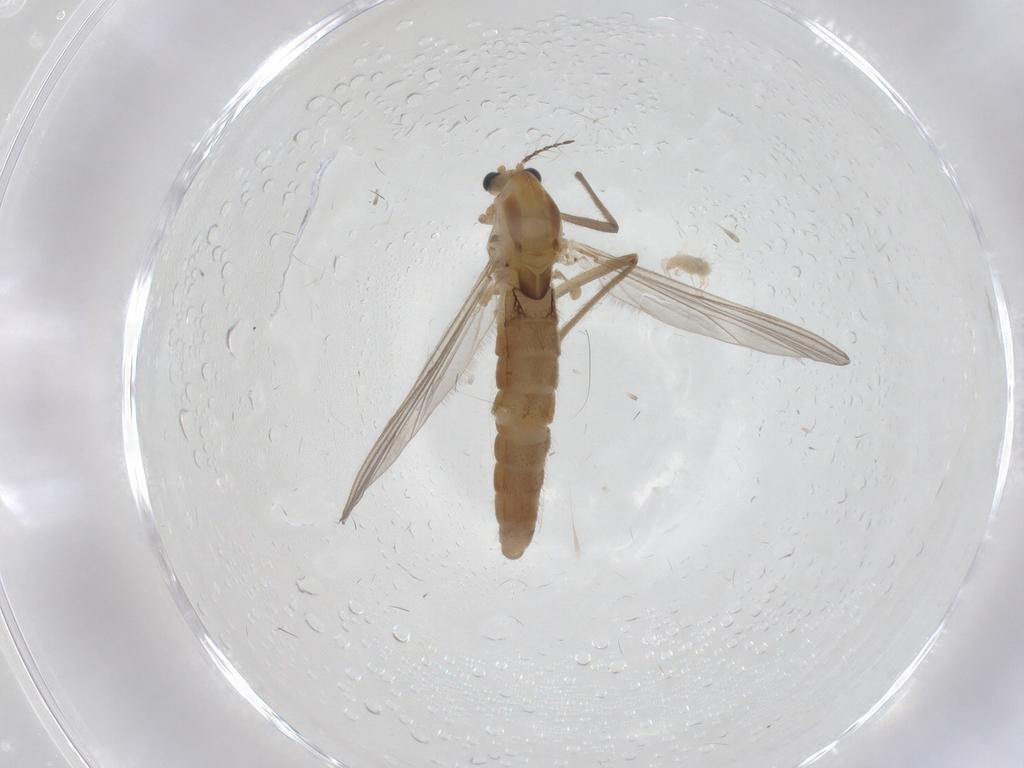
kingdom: Animalia
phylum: Arthropoda
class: Insecta
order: Diptera
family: Chironomidae
